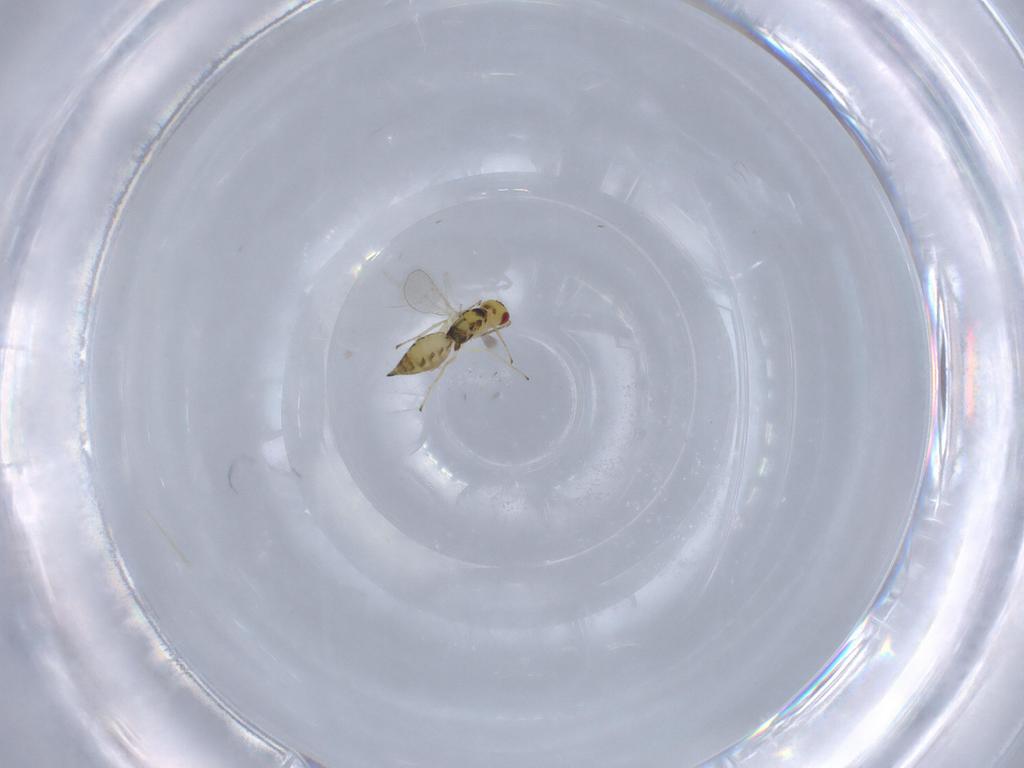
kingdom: Animalia
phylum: Arthropoda
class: Insecta
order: Hymenoptera
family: Eulophidae
